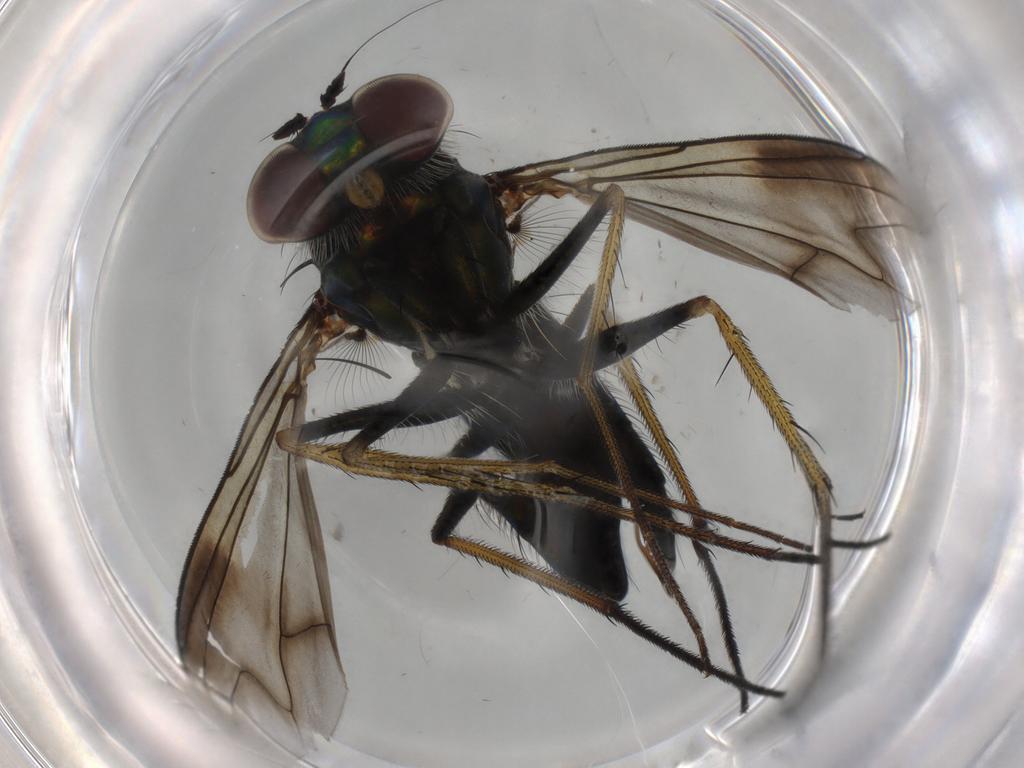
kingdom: Animalia
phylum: Arthropoda
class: Insecta
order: Diptera
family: Dolichopodidae
